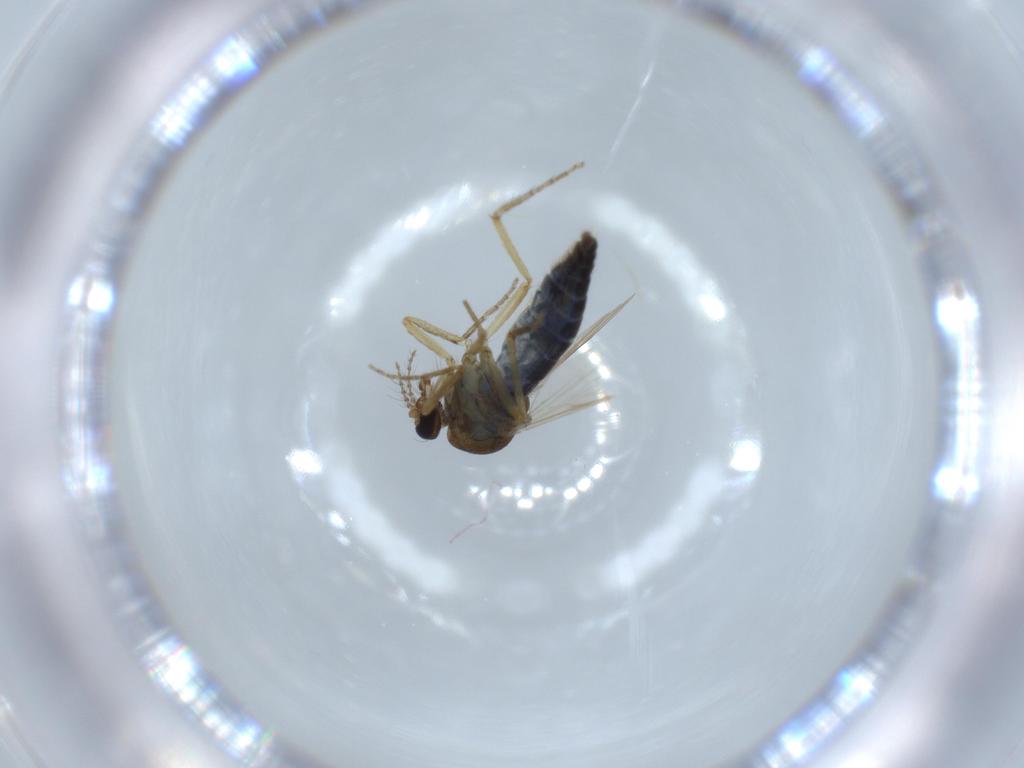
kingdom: Animalia
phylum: Arthropoda
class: Insecta
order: Diptera
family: Ceratopogonidae
